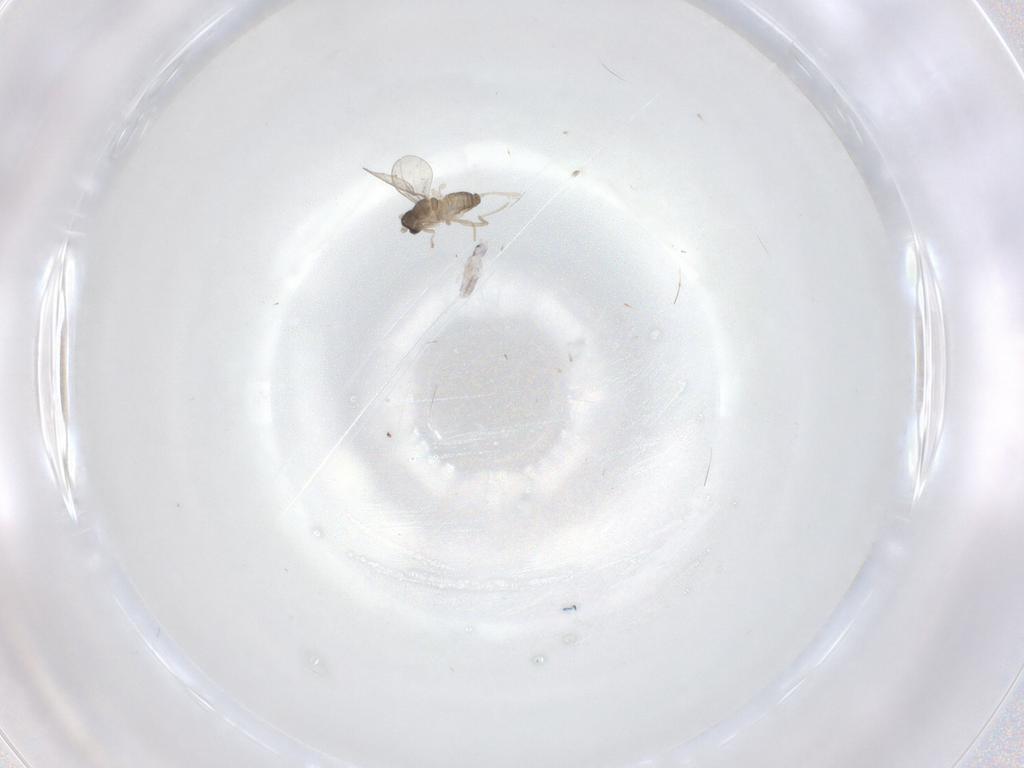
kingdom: Animalia
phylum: Arthropoda
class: Insecta
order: Diptera
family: Cecidomyiidae
